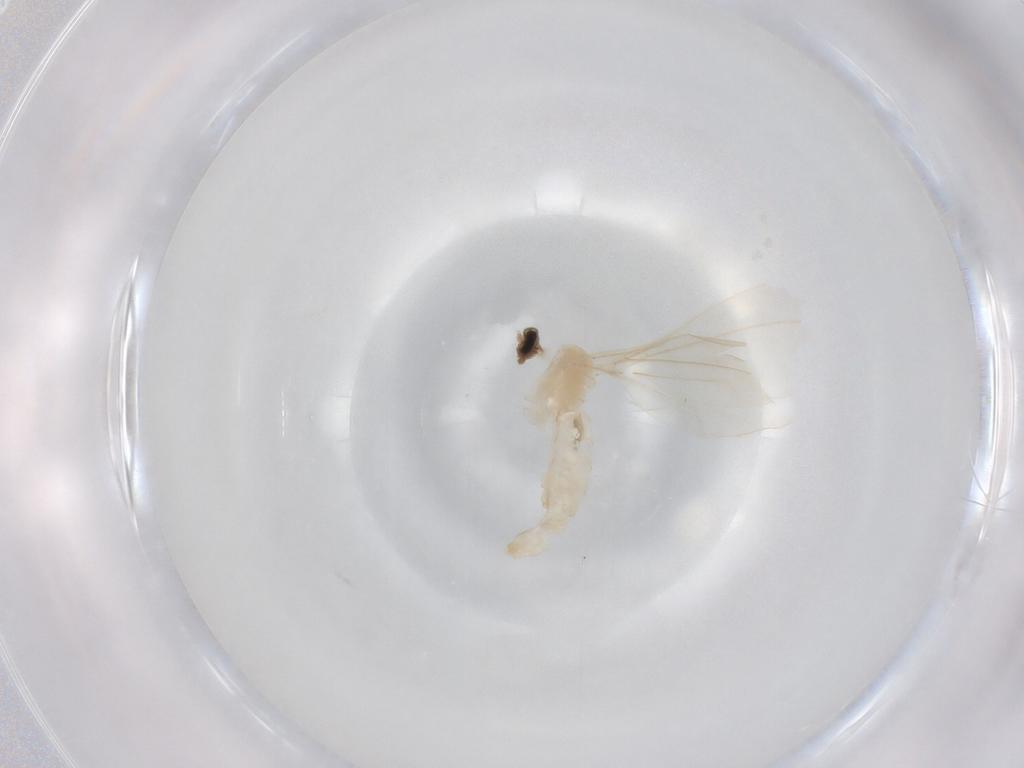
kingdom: Animalia
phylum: Arthropoda
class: Insecta
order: Diptera
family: Cecidomyiidae
